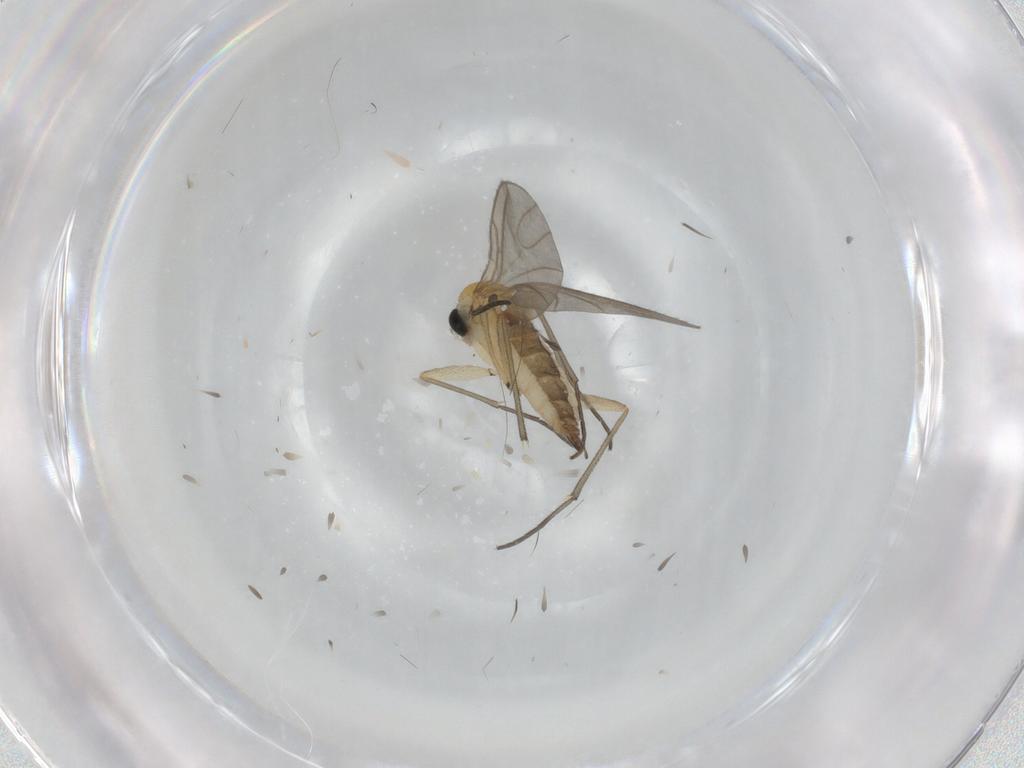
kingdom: Animalia
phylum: Arthropoda
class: Insecta
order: Diptera
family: Sciaridae
